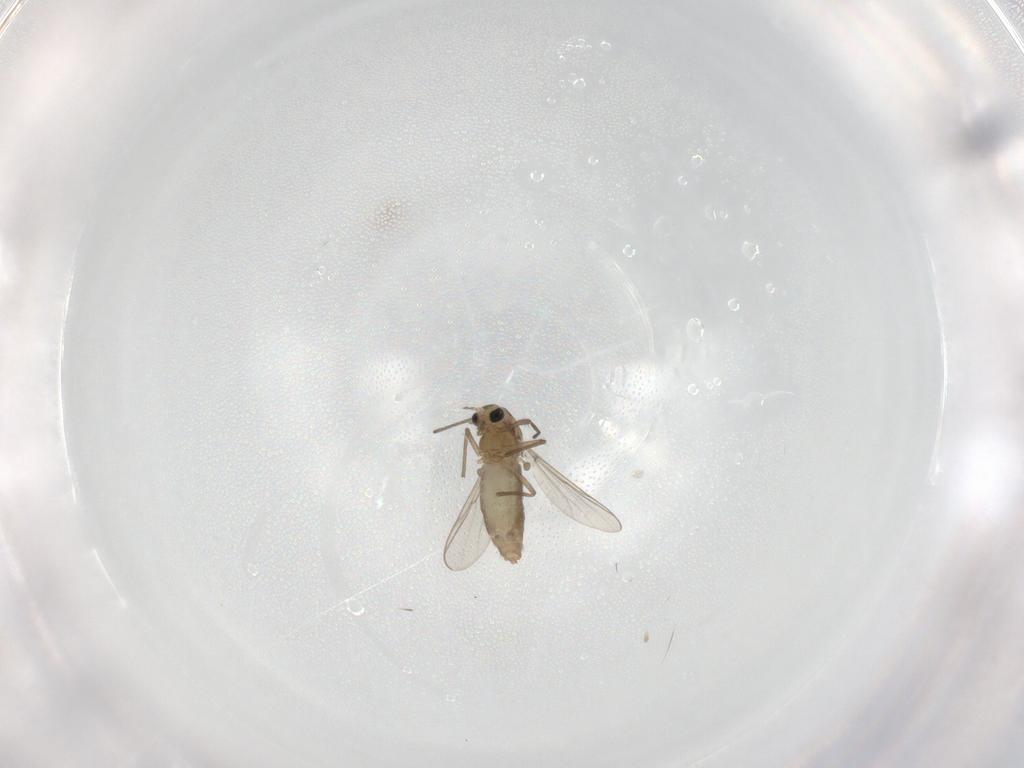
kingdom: Animalia
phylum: Arthropoda
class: Insecta
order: Diptera
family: Chironomidae
